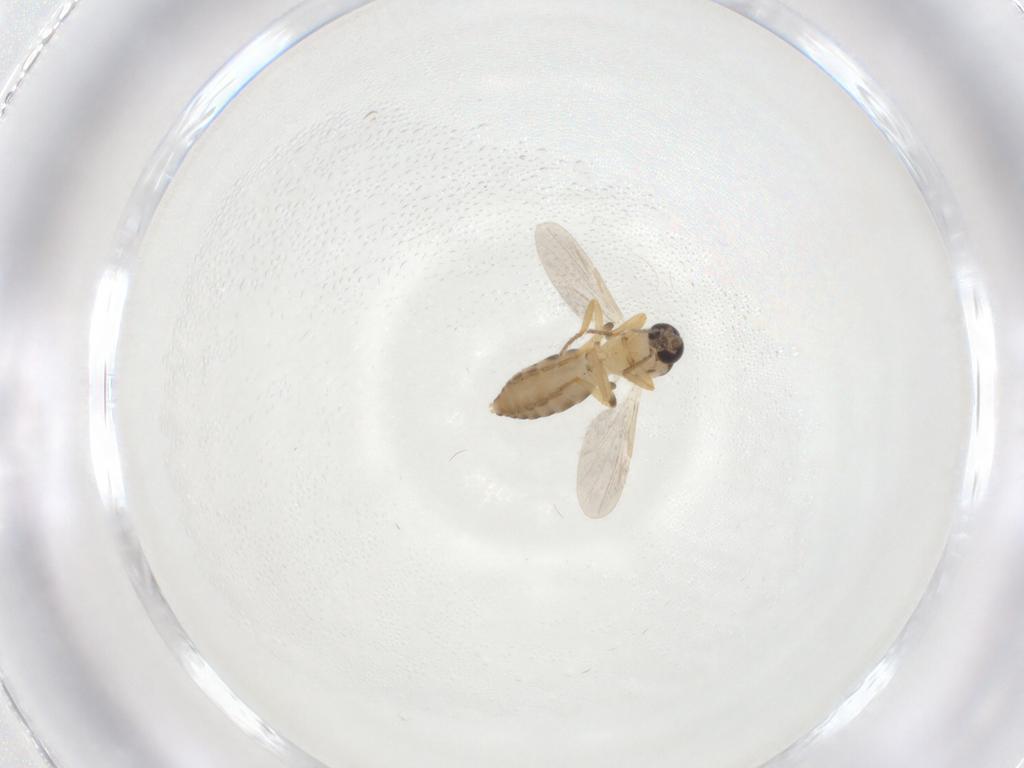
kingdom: Animalia
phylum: Arthropoda
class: Insecta
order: Diptera
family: Ceratopogonidae
